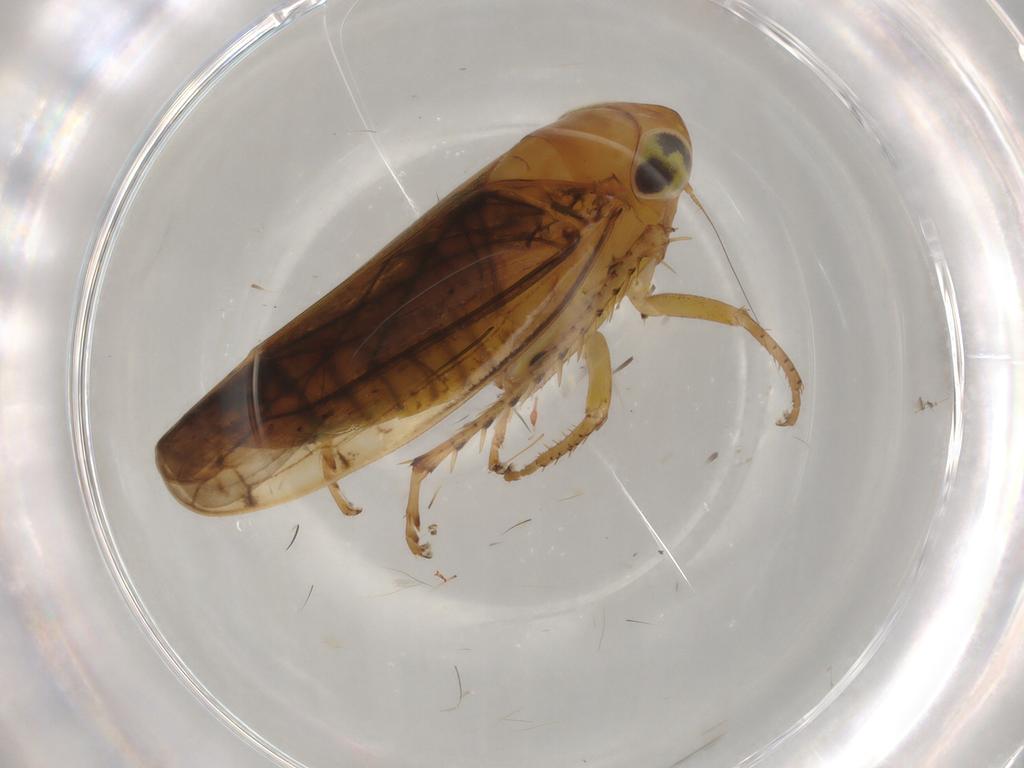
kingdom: Animalia
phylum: Arthropoda
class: Insecta
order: Hemiptera
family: Cicadellidae
